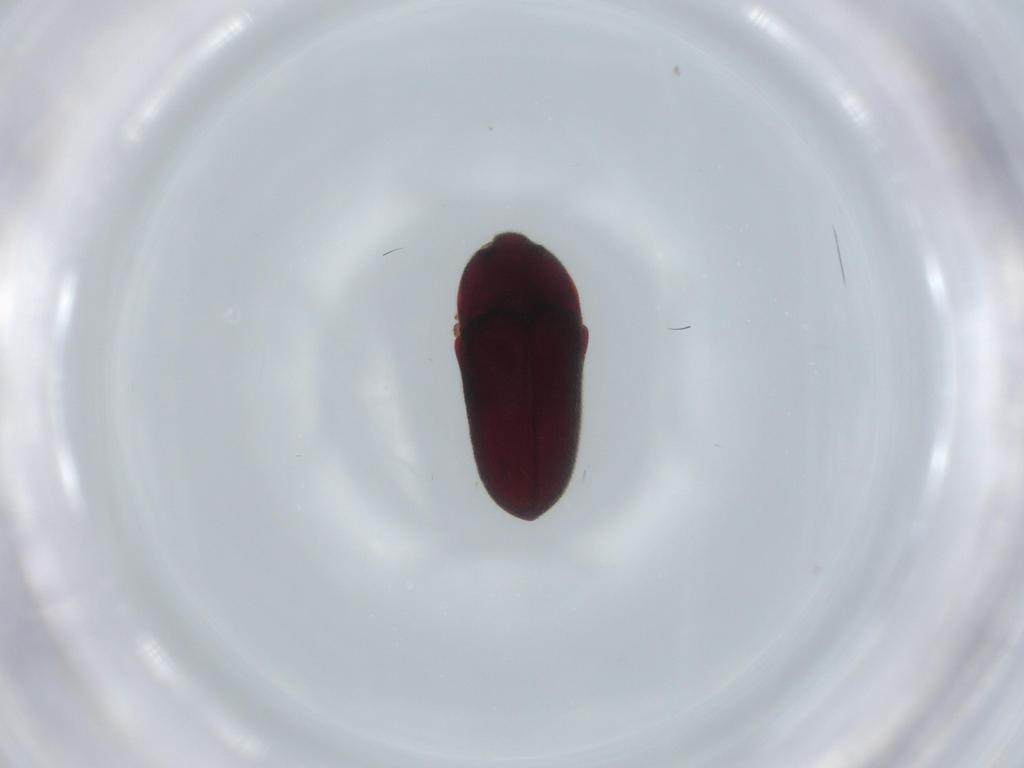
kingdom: Animalia
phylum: Arthropoda
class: Insecta
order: Coleoptera
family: Throscidae
